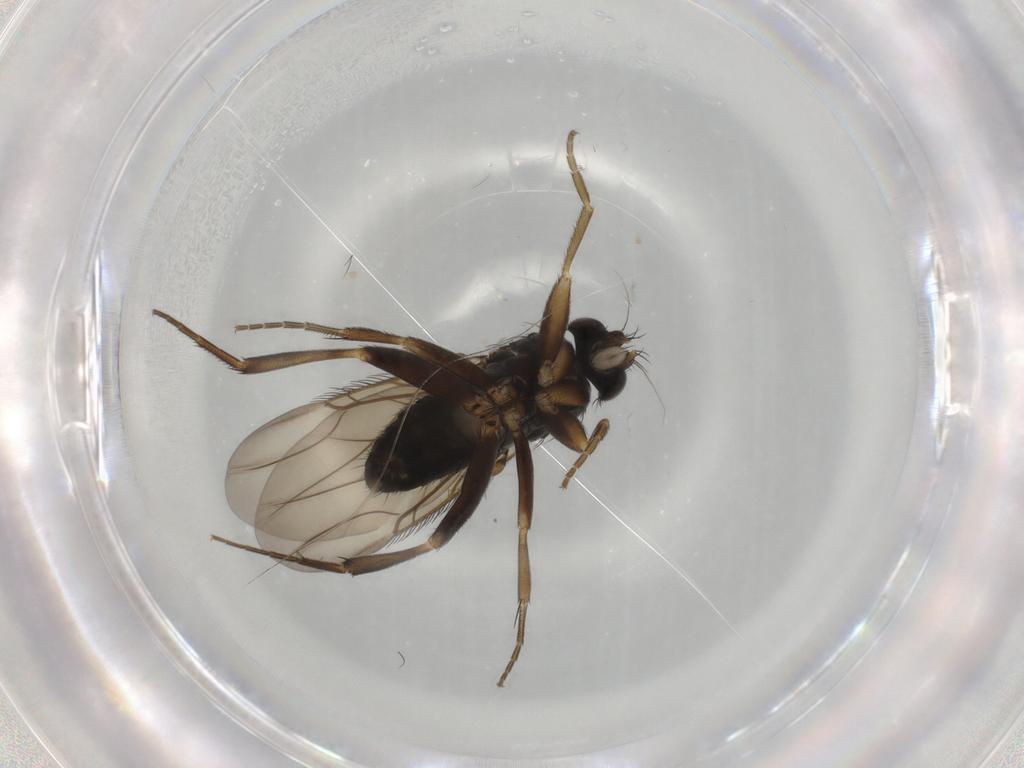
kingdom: Animalia
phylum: Arthropoda
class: Insecta
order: Diptera
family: Phoridae
